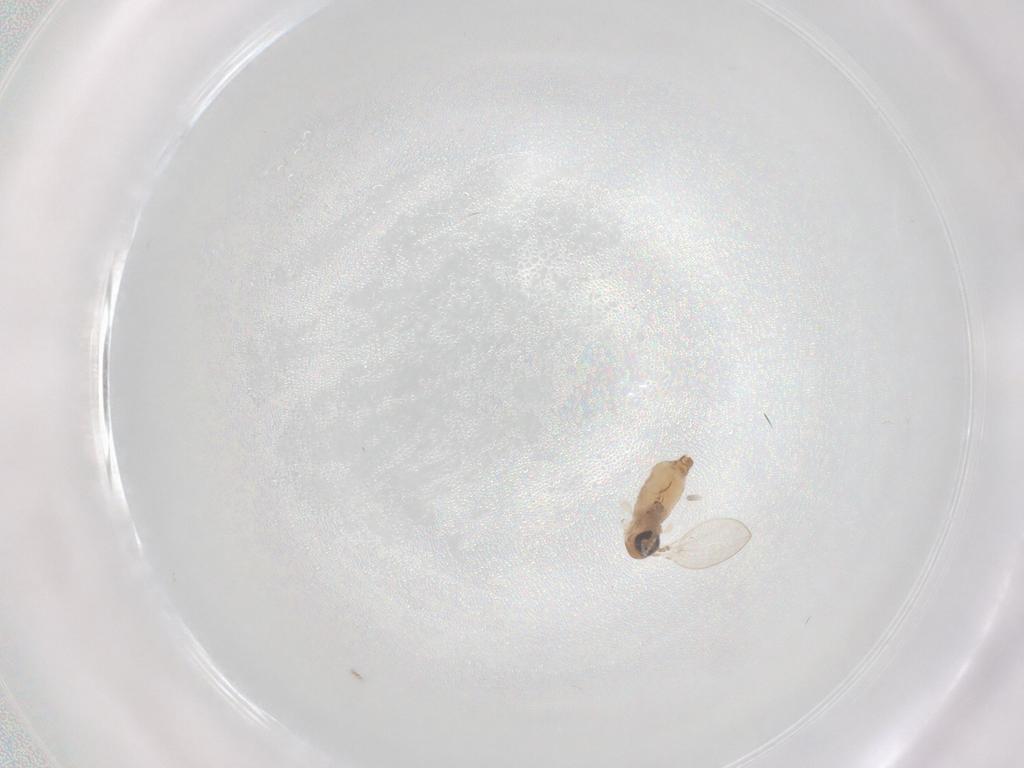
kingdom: Animalia
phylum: Arthropoda
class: Insecta
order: Diptera
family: Psychodidae
